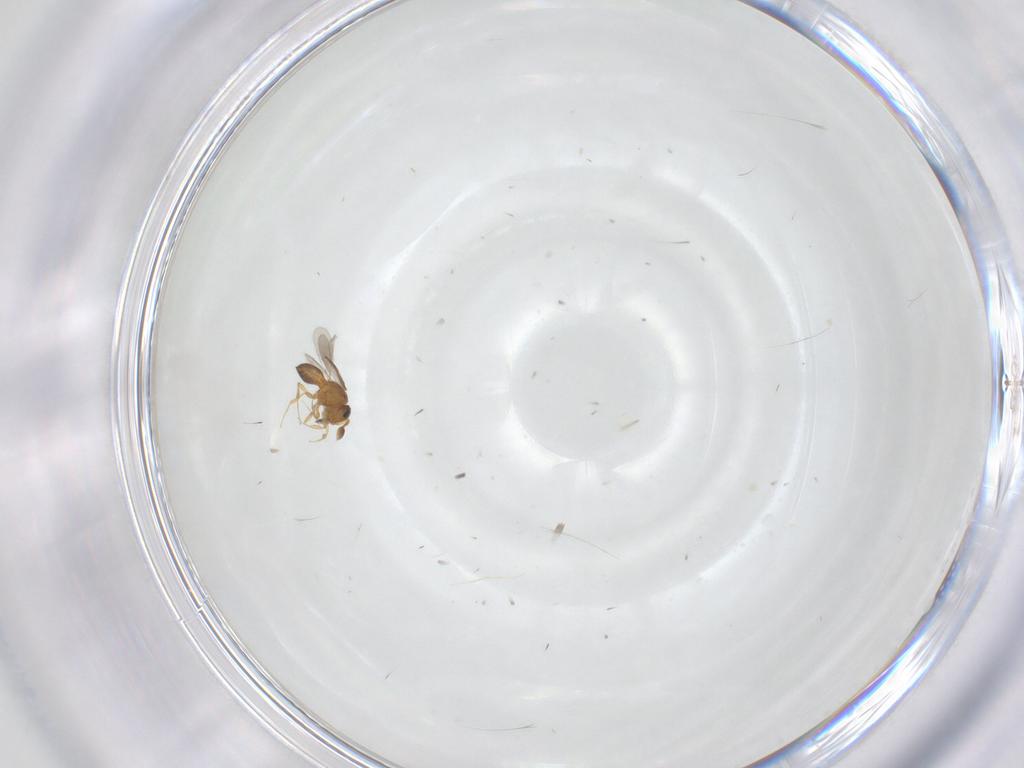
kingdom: Animalia
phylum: Arthropoda
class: Insecta
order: Hymenoptera
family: Scelionidae
